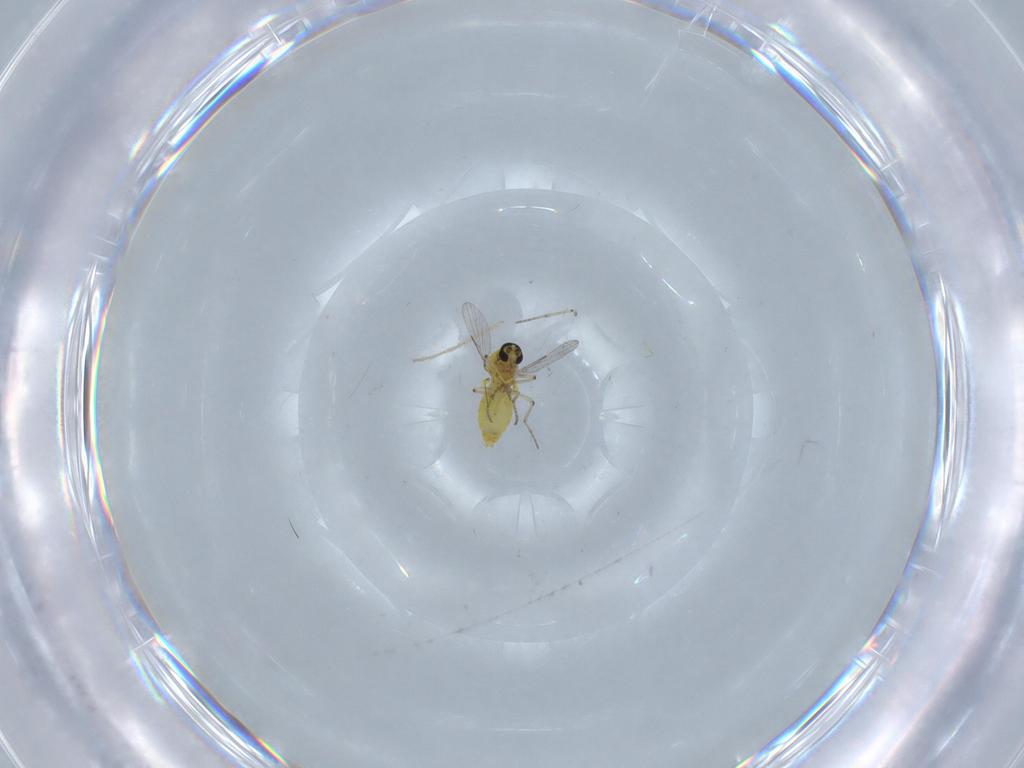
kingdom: Animalia
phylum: Arthropoda
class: Insecta
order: Diptera
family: Ceratopogonidae
